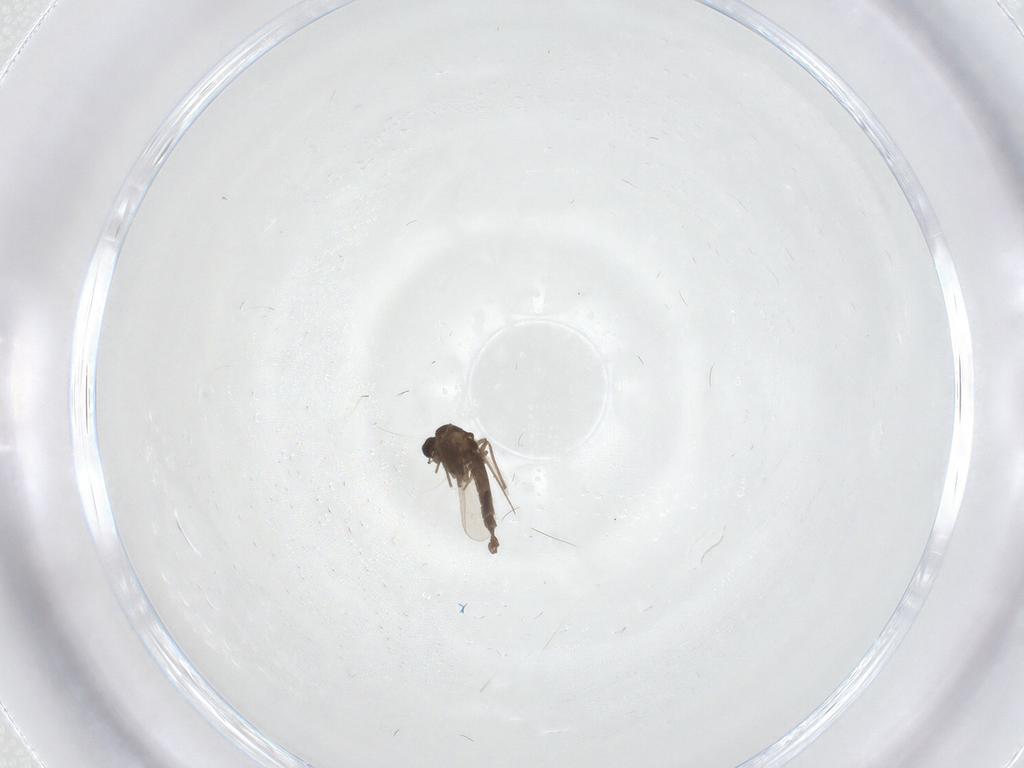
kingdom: Animalia
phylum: Arthropoda
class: Insecta
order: Diptera
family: Chironomidae
